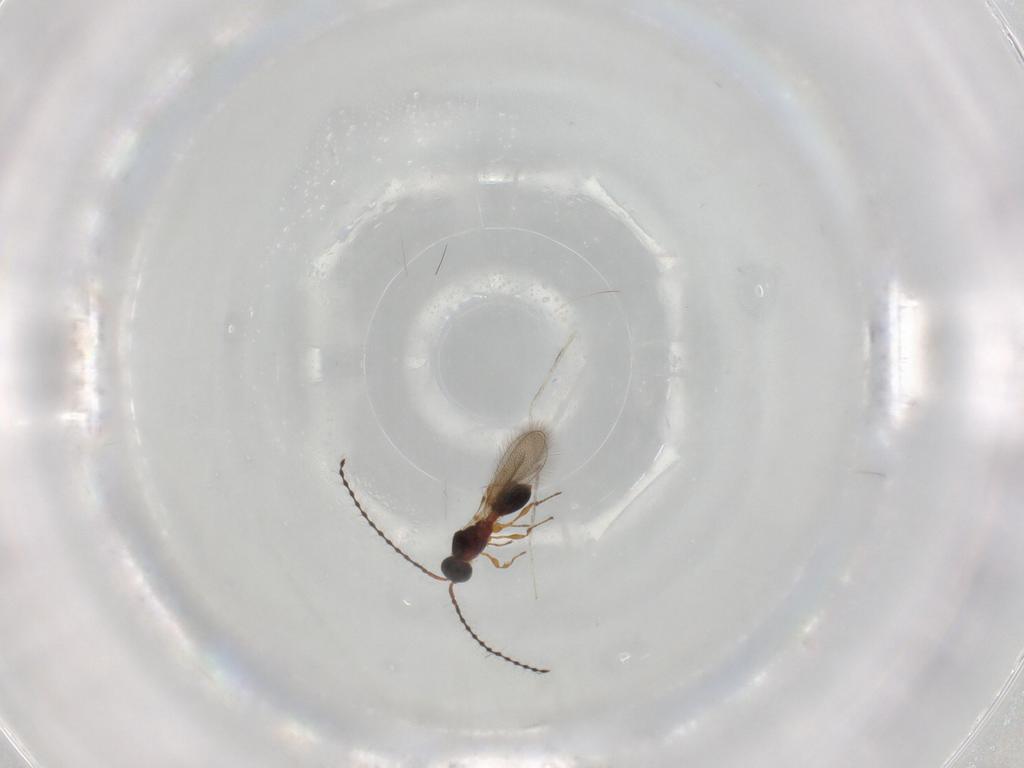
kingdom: Animalia
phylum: Arthropoda
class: Insecta
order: Hymenoptera
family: Diapriidae
